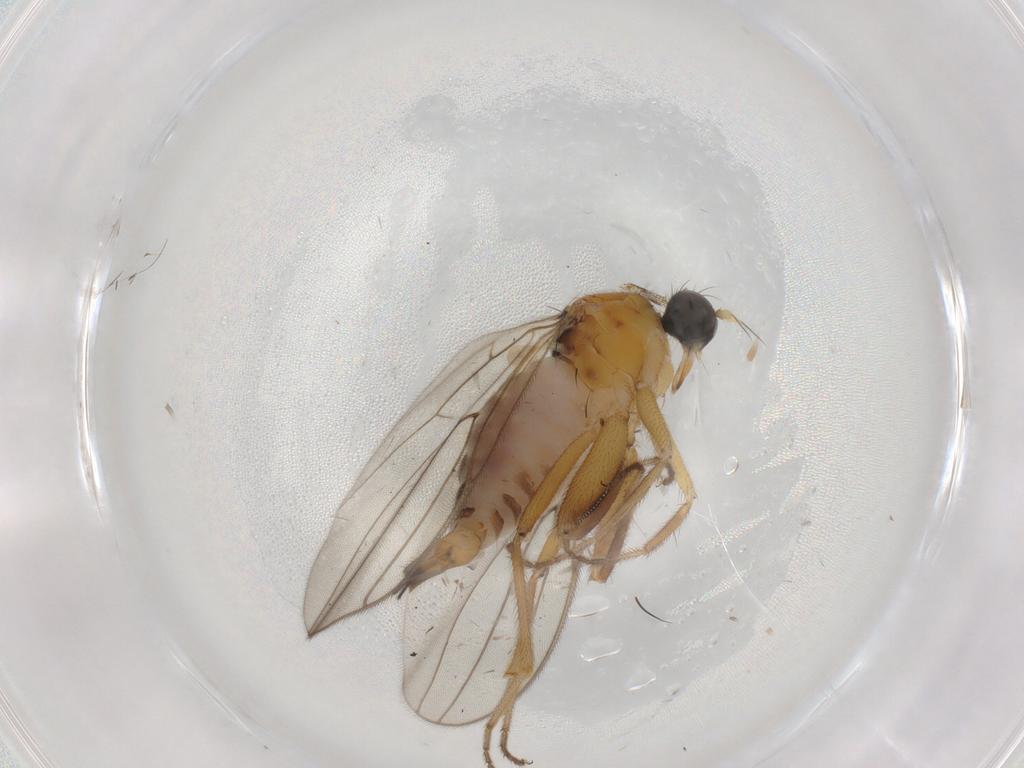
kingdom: Animalia
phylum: Arthropoda
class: Insecta
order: Diptera
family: Hybotidae
